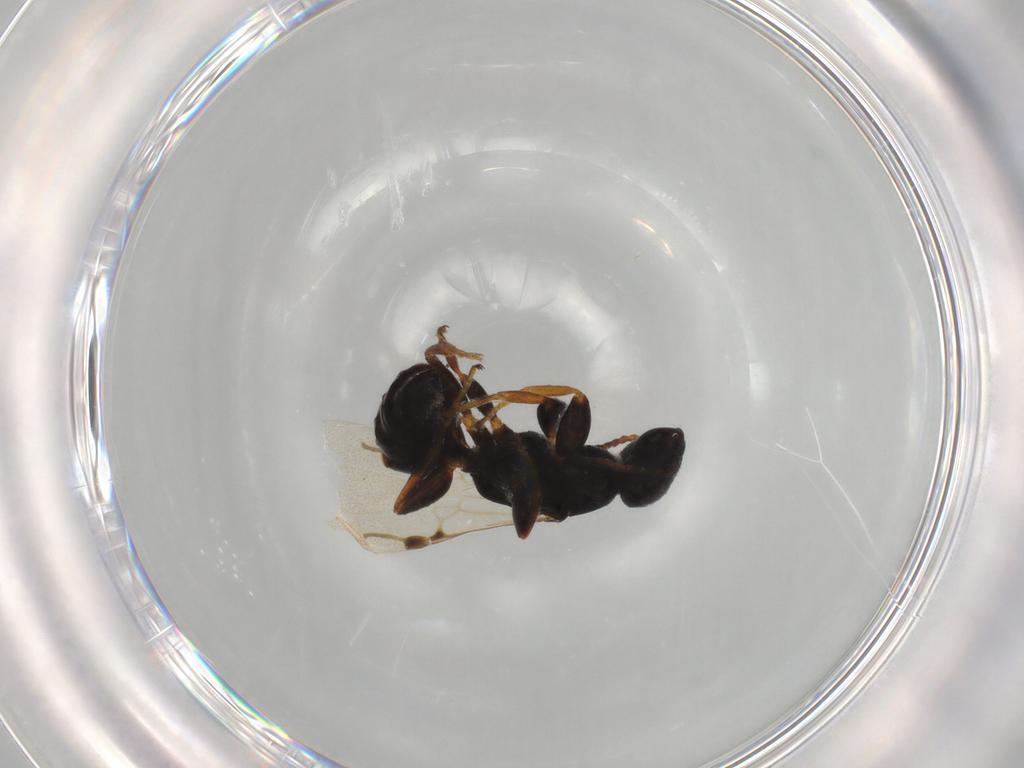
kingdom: Animalia
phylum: Arthropoda
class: Insecta
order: Hymenoptera
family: Bethylidae
